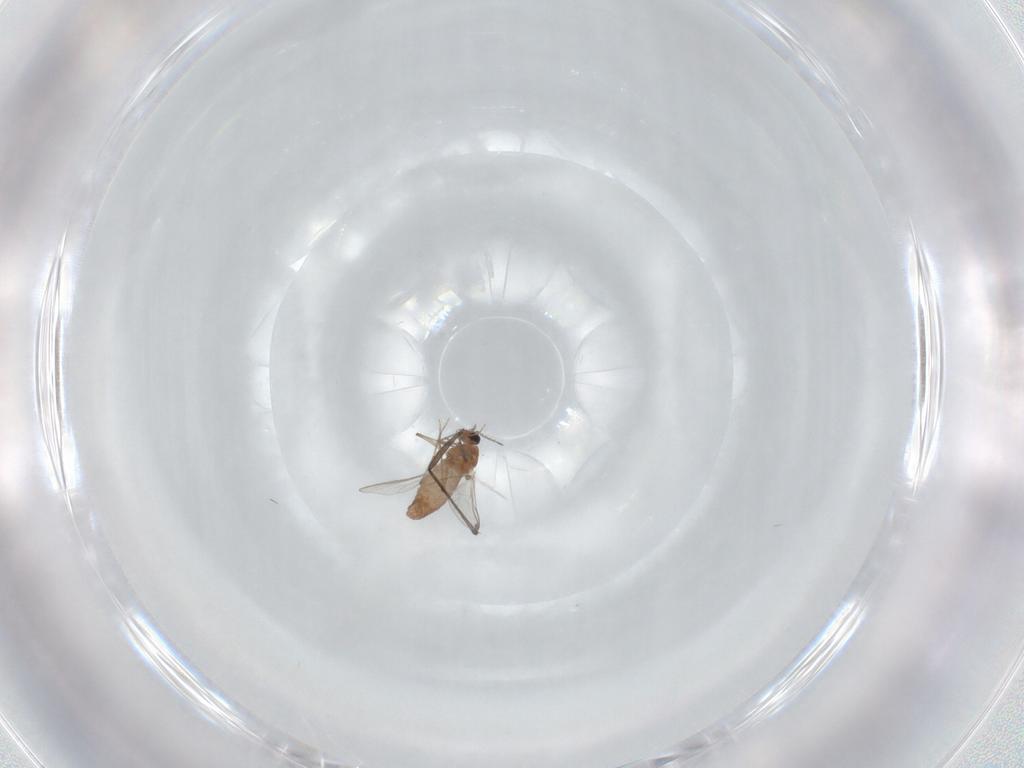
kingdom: Animalia
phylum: Arthropoda
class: Insecta
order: Diptera
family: Chironomidae
